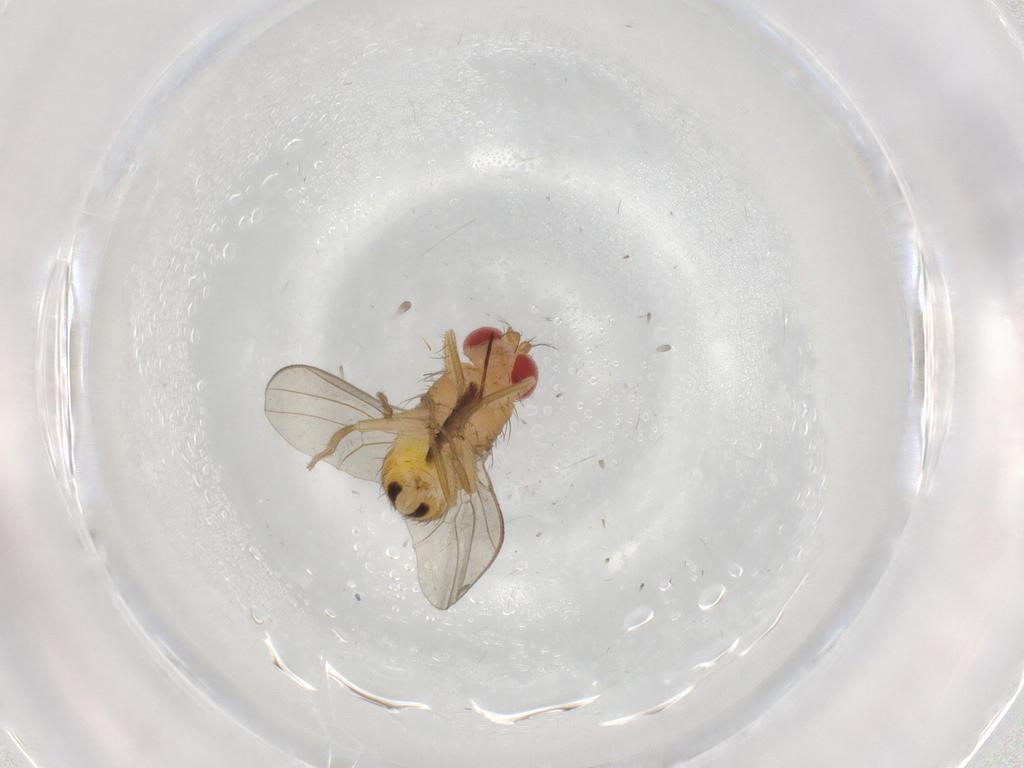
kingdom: Animalia
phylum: Arthropoda
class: Insecta
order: Diptera
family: Drosophilidae
